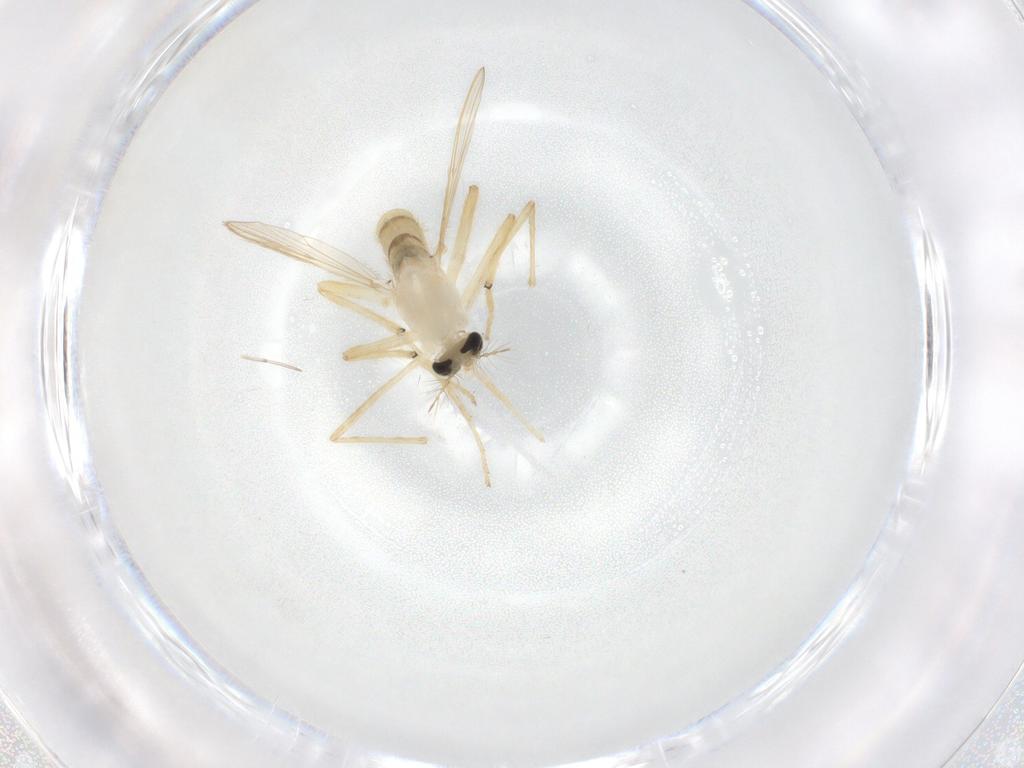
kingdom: Animalia
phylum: Arthropoda
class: Insecta
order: Diptera
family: Chironomidae
